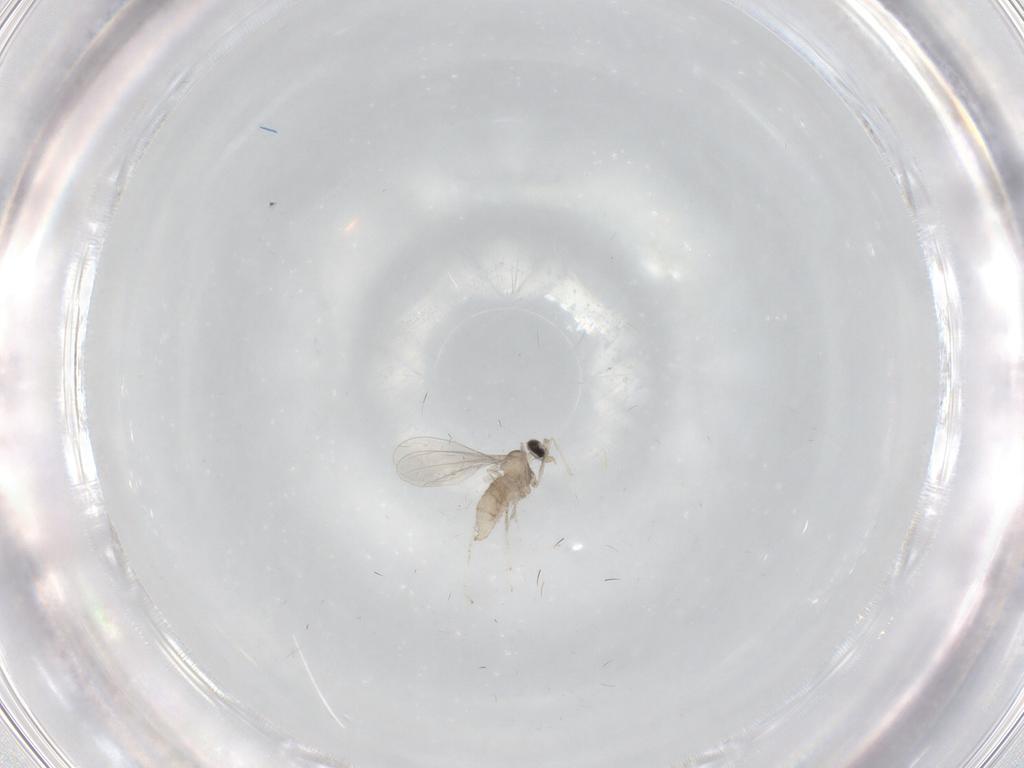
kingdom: Animalia
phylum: Arthropoda
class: Insecta
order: Diptera
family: Cecidomyiidae
